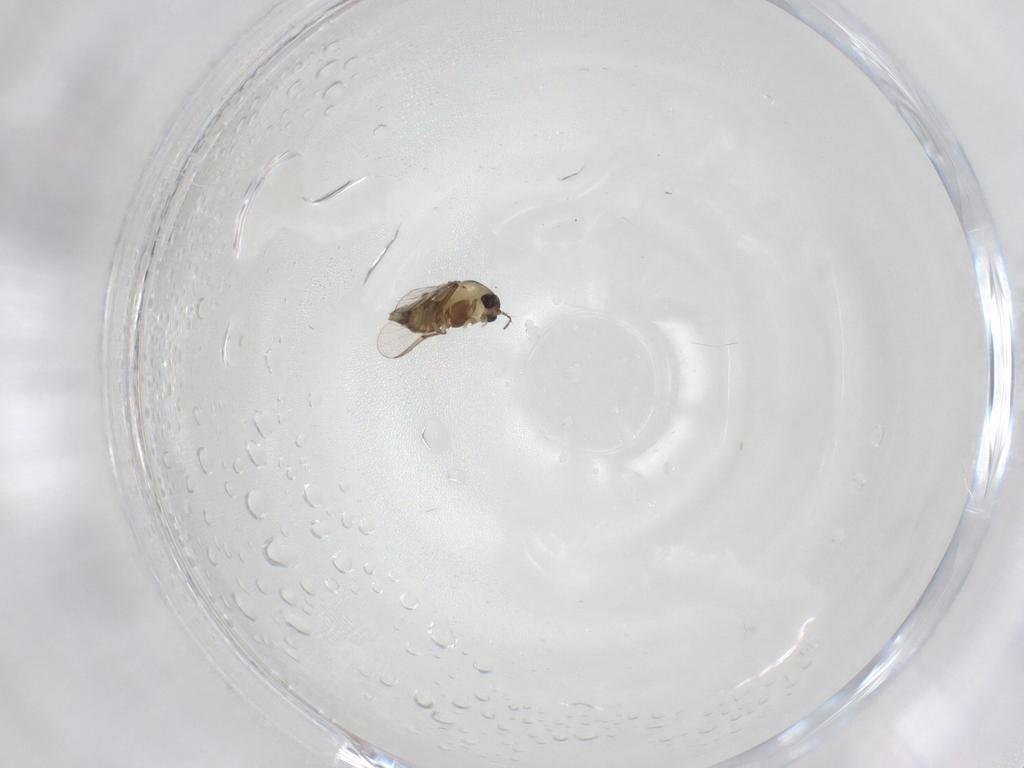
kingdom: Animalia
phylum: Arthropoda
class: Insecta
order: Diptera
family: Chironomidae
